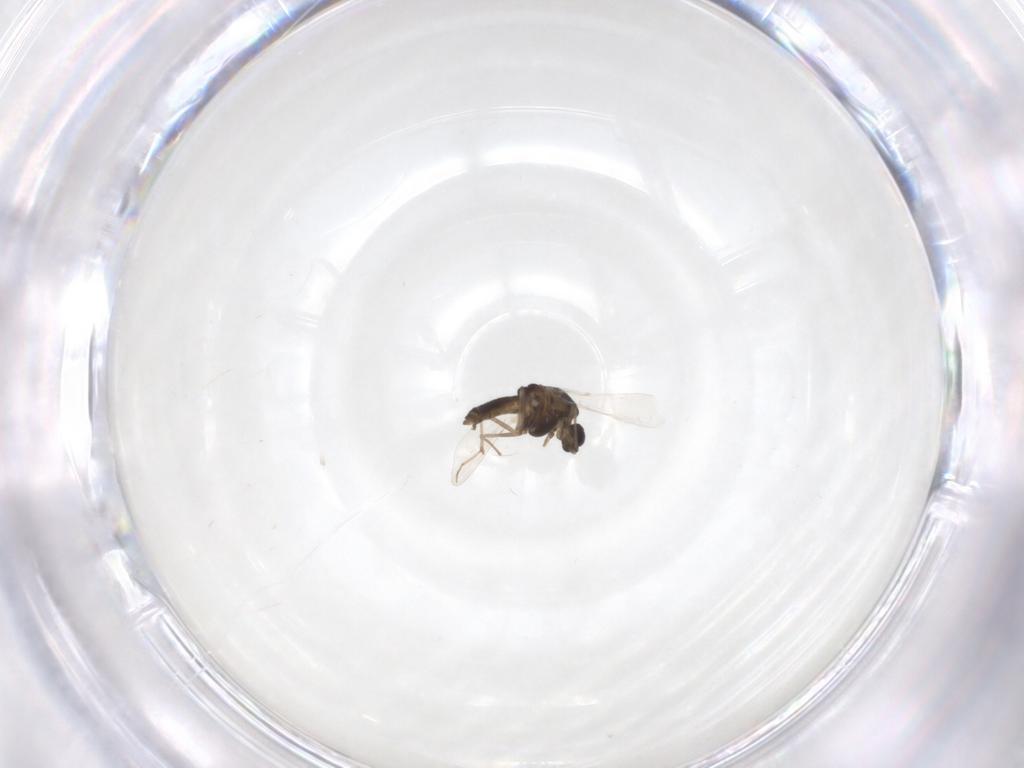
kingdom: Animalia
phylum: Arthropoda
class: Insecta
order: Diptera
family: Chironomidae
